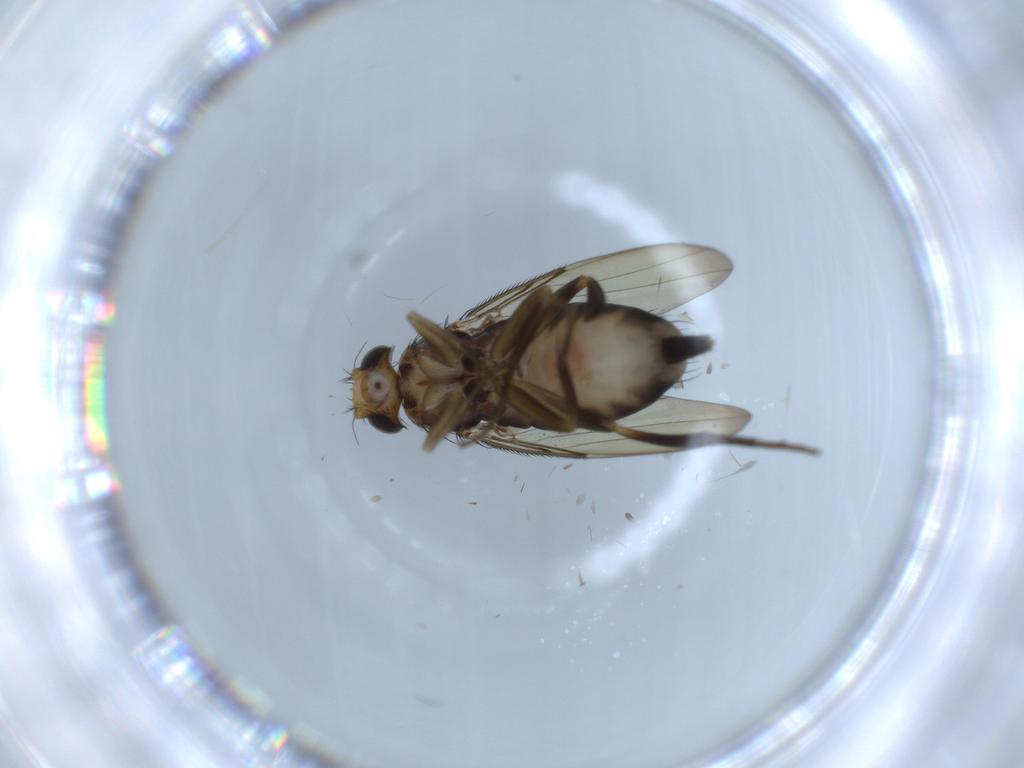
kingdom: Animalia
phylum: Arthropoda
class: Insecta
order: Diptera
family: Phoridae
